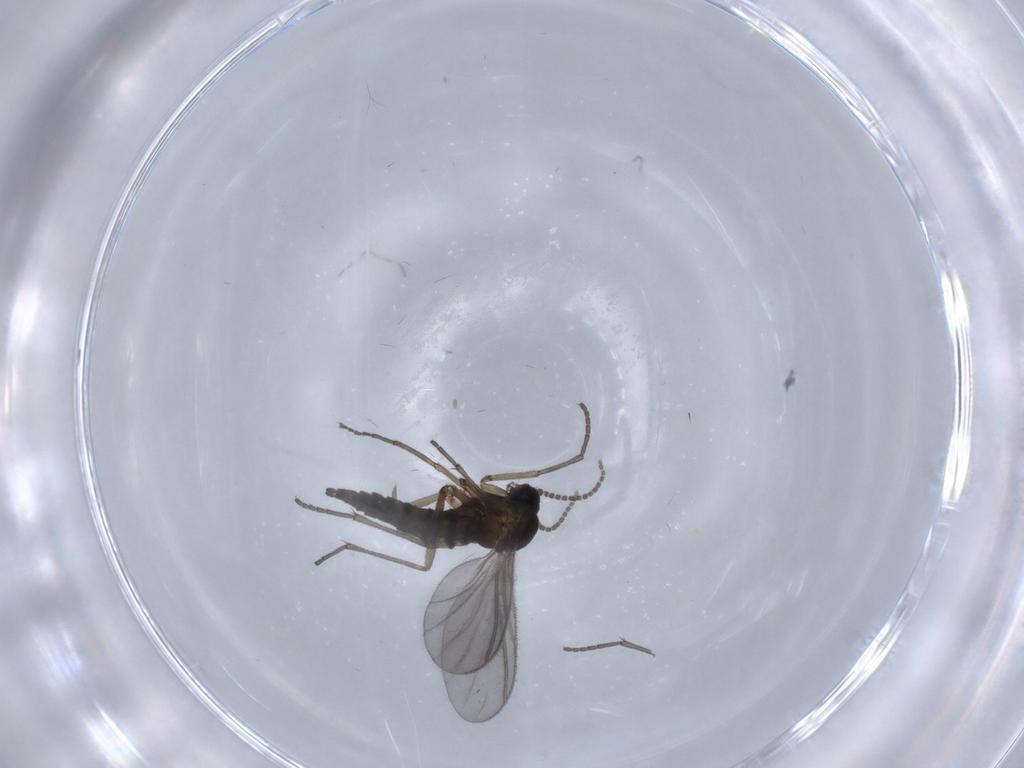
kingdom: Animalia
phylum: Arthropoda
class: Insecta
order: Diptera
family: Sciaridae
